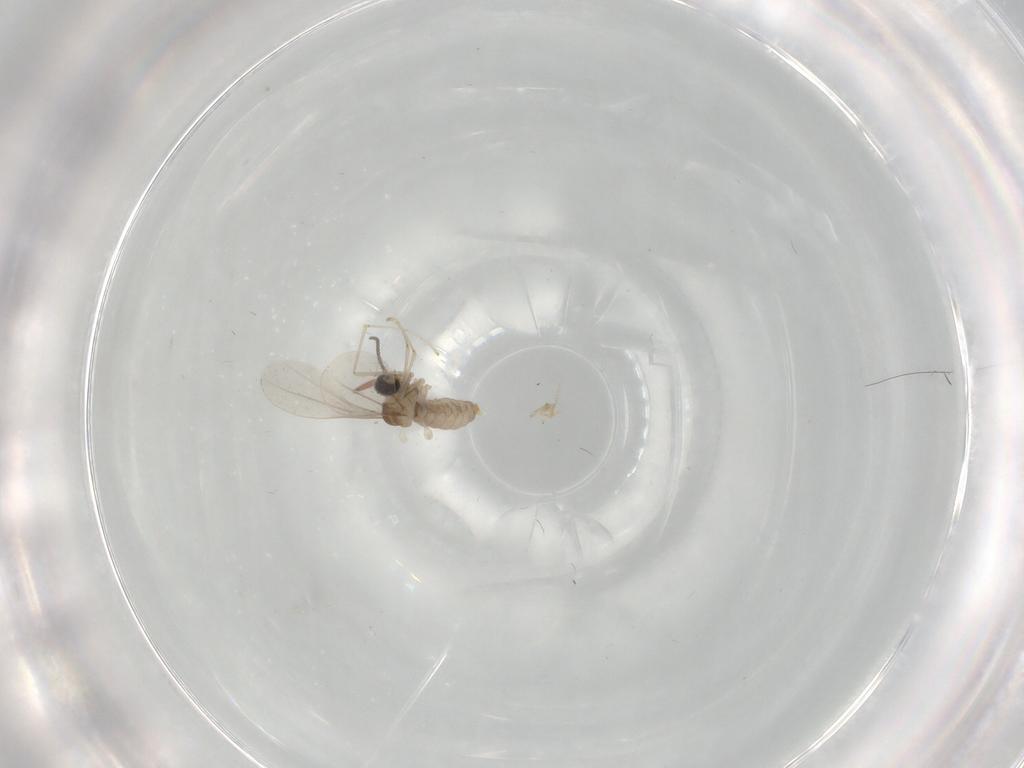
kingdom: Animalia
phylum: Arthropoda
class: Insecta
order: Diptera
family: Cecidomyiidae
